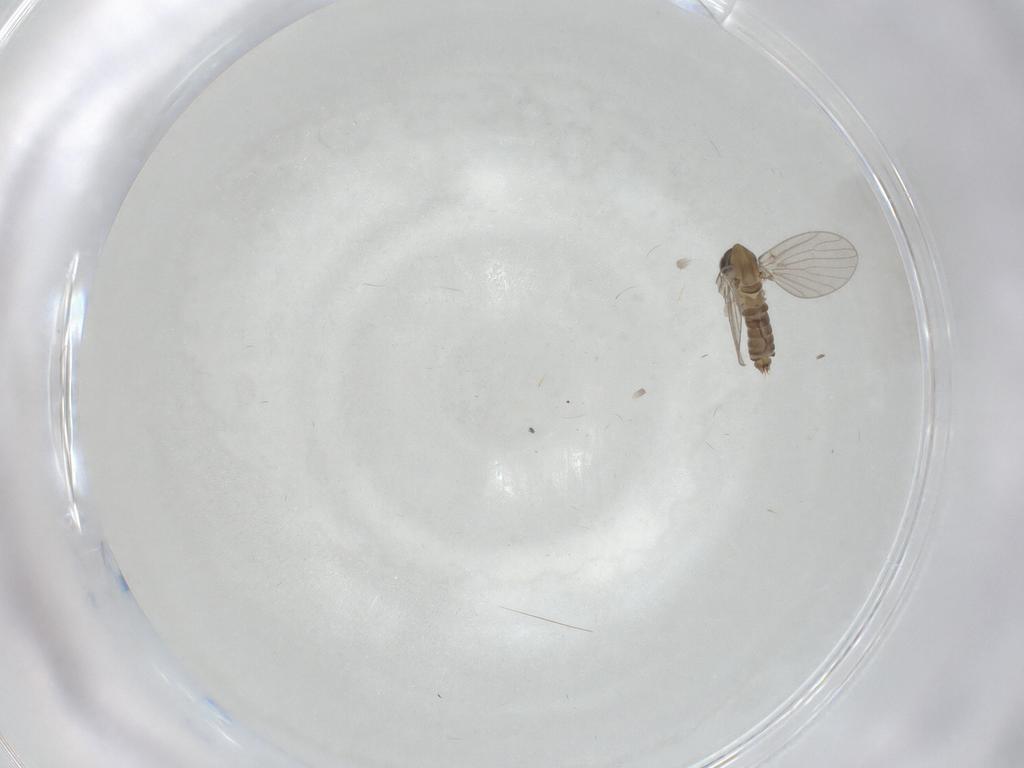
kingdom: Animalia
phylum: Arthropoda
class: Insecta
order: Diptera
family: Psychodidae
